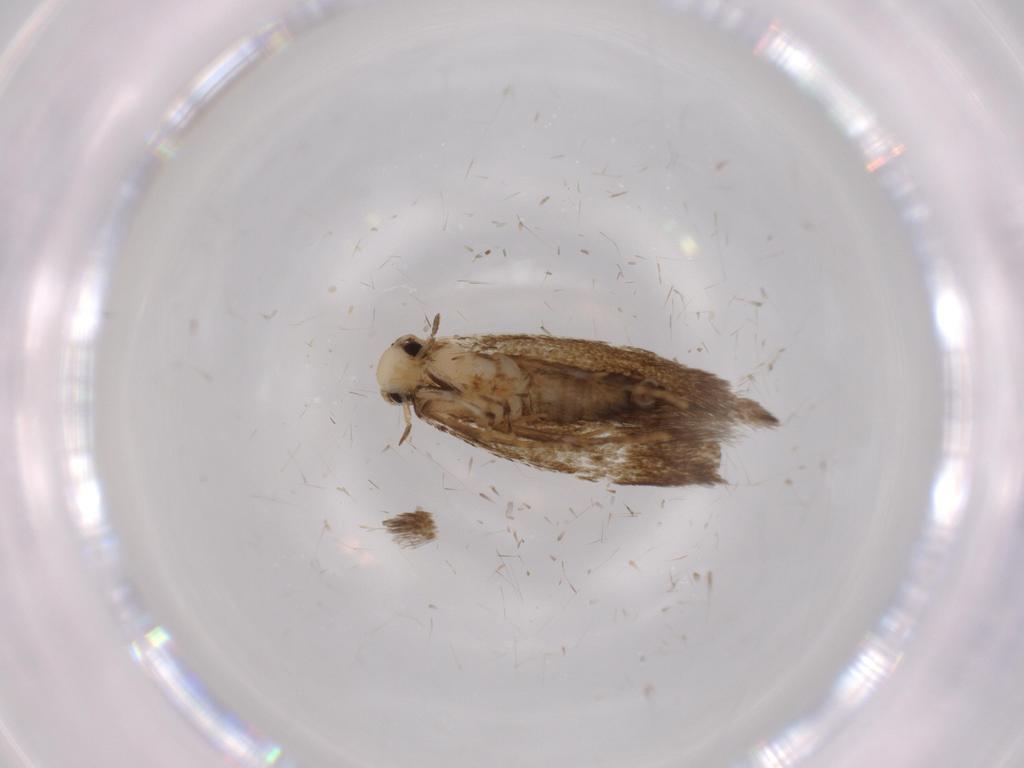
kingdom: Animalia
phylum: Arthropoda
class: Insecta
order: Lepidoptera
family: Tineidae
